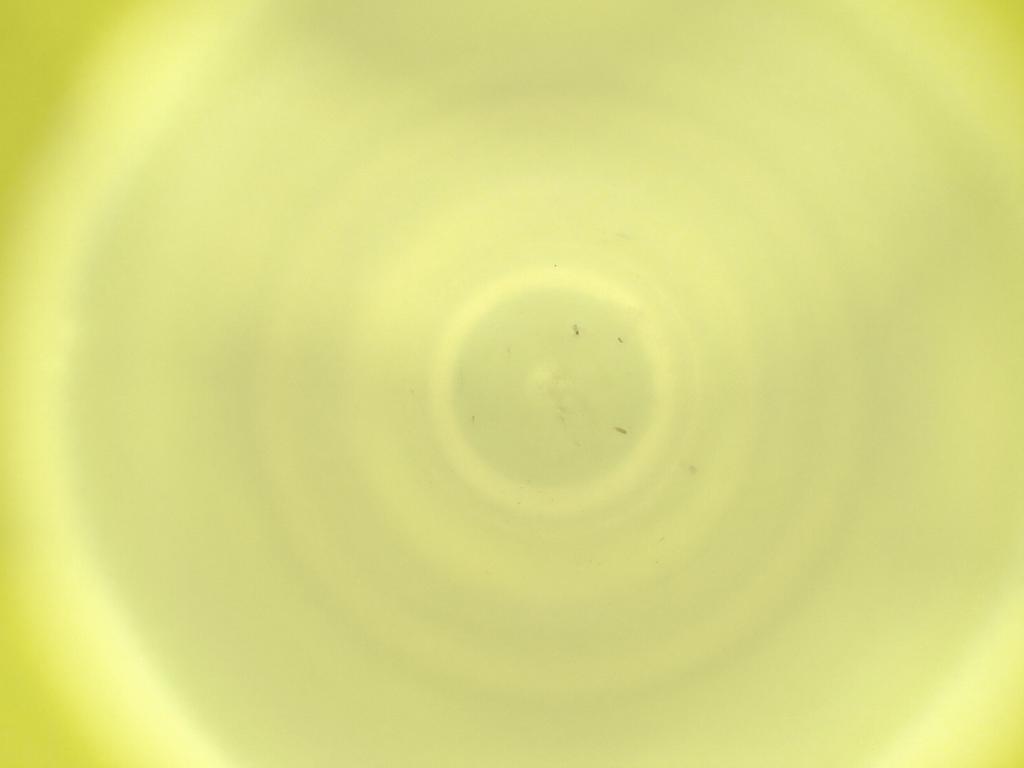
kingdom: Animalia
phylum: Arthropoda
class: Insecta
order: Diptera
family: Cecidomyiidae
